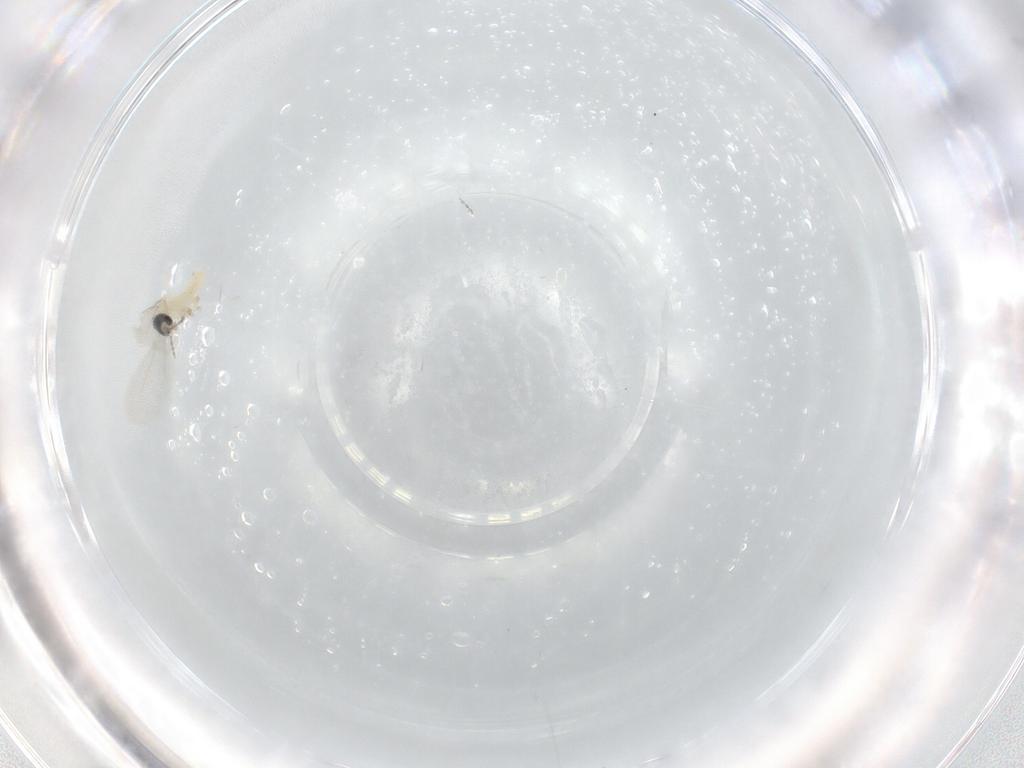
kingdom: Animalia
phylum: Arthropoda
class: Insecta
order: Diptera
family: Cecidomyiidae
